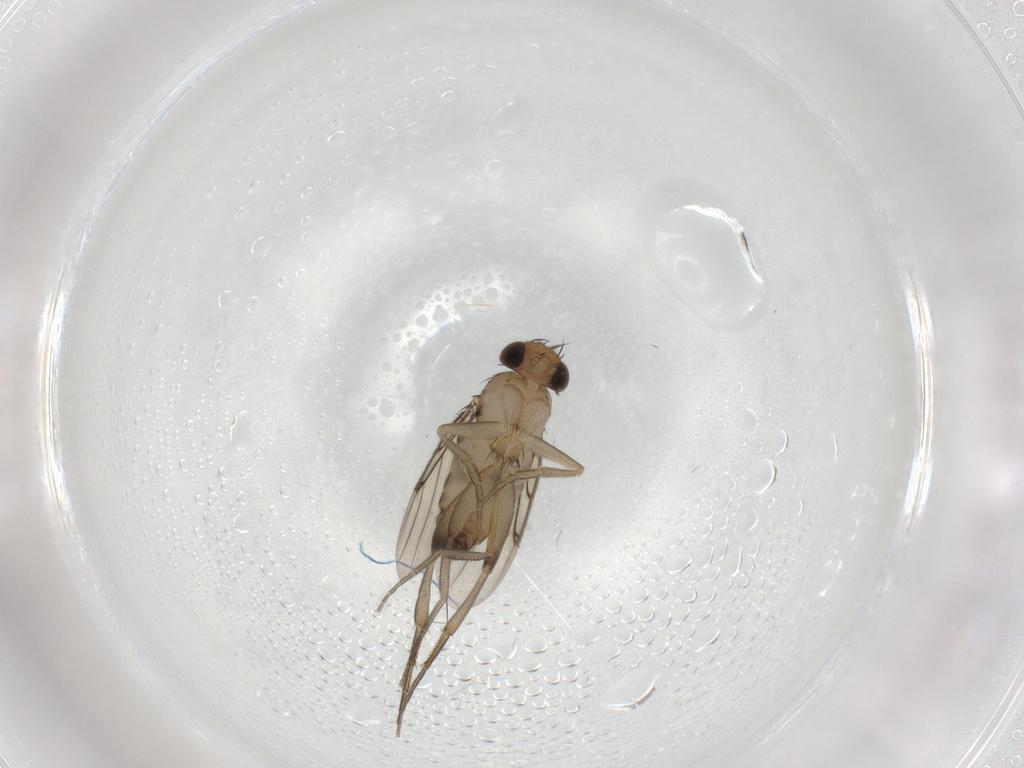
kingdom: Animalia
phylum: Arthropoda
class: Insecta
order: Diptera
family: Phoridae
